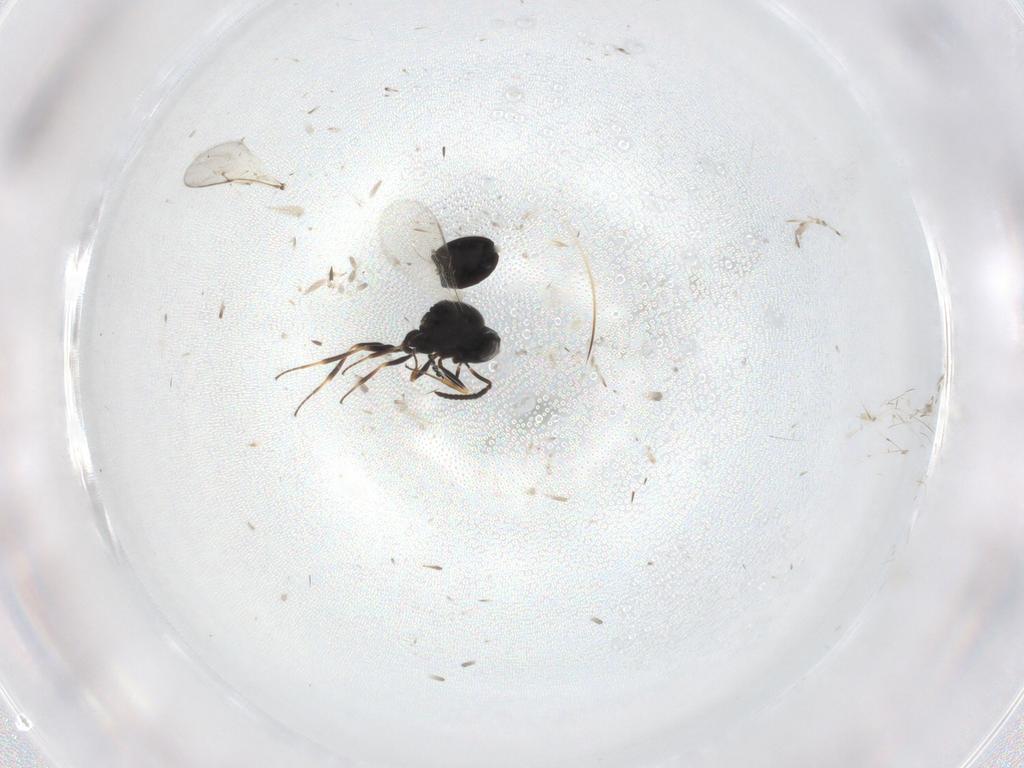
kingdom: Animalia
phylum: Arthropoda
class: Insecta
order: Hymenoptera
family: Scelionidae
